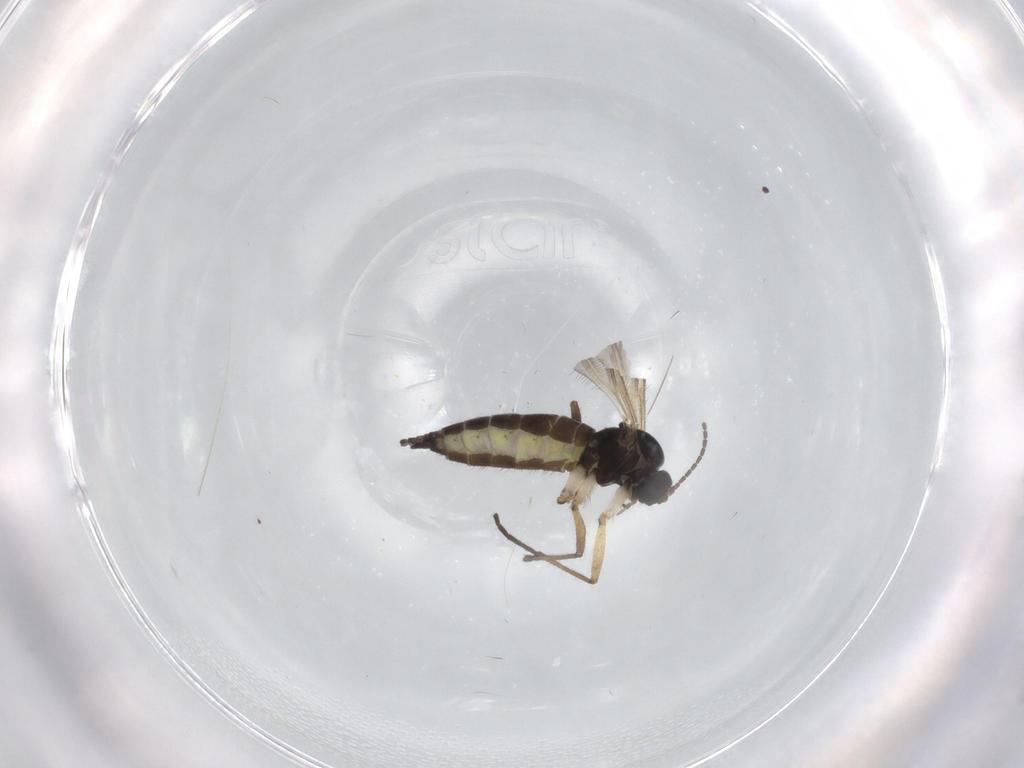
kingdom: Animalia
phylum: Arthropoda
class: Insecta
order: Diptera
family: Sciaridae
